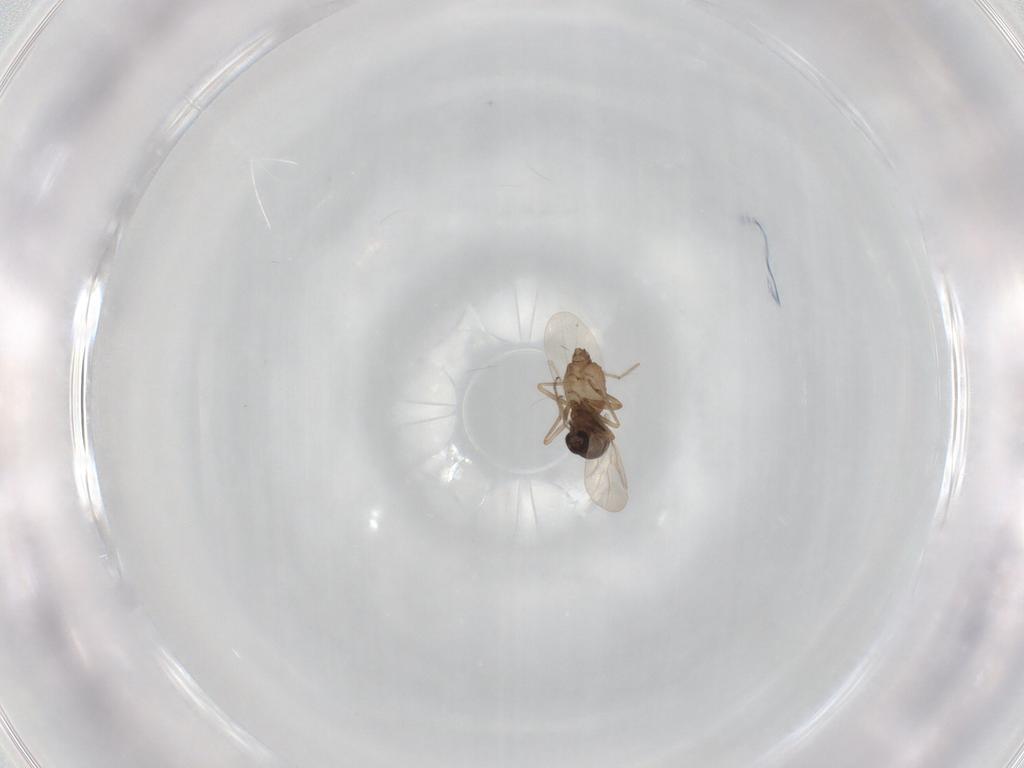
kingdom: Animalia
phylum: Arthropoda
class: Insecta
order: Diptera
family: Ceratopogonidae
